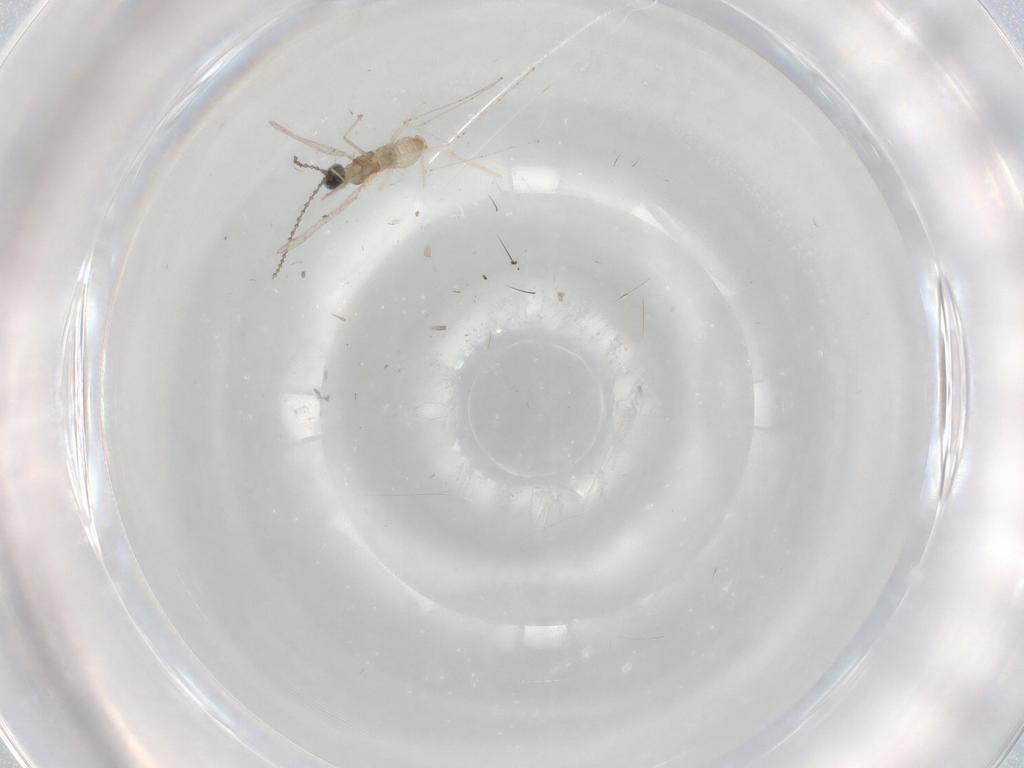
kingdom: Animalia
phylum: Arthropoda
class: Insecta
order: Diptera
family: Cecidomyiidae
